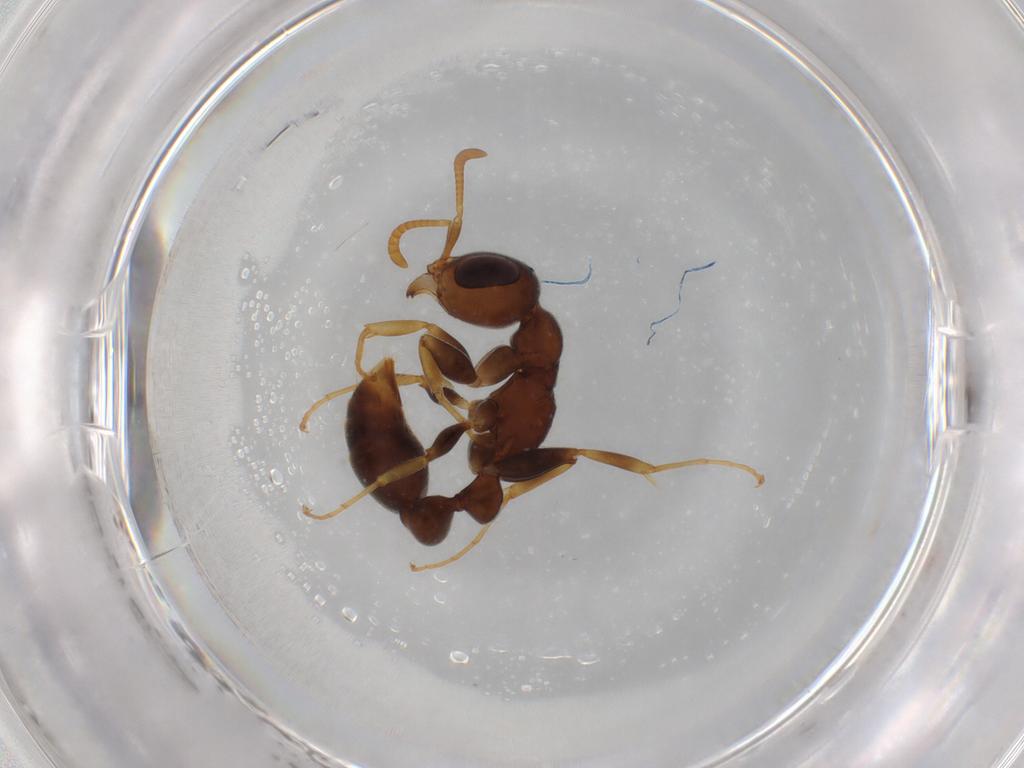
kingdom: Animalia
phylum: Arthropoda
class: Insecta
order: Hymenoptera
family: Formicidae
